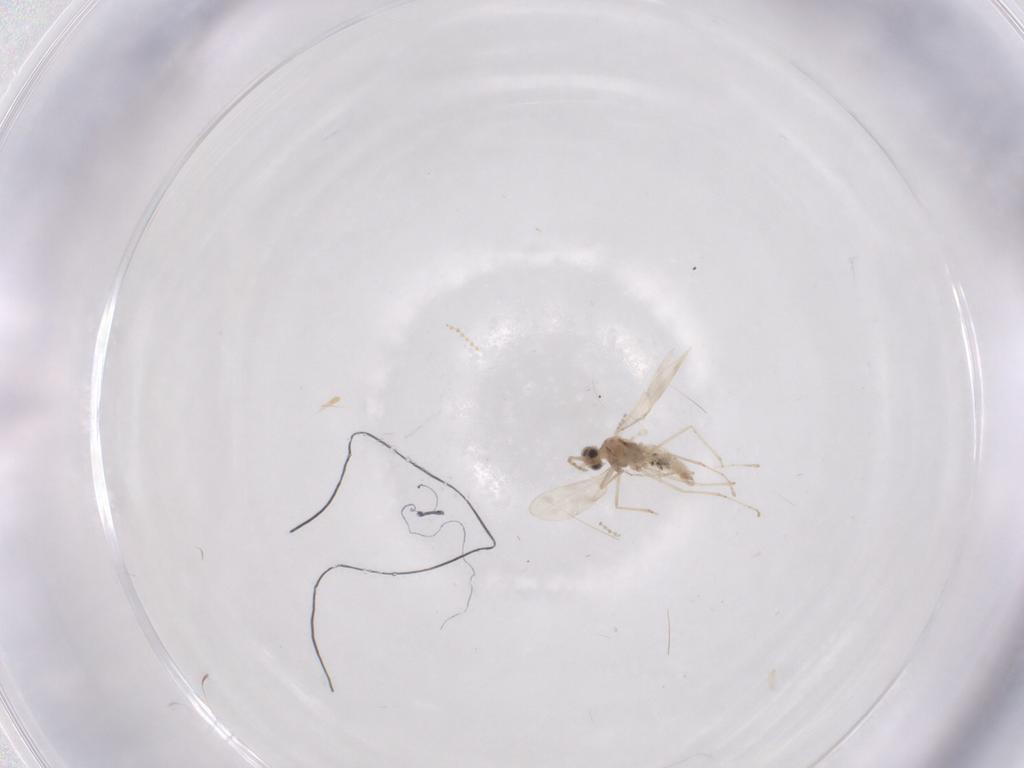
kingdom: Animalia
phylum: Arthropoda
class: Insecta
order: Diptera
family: Cecidomyiidae
